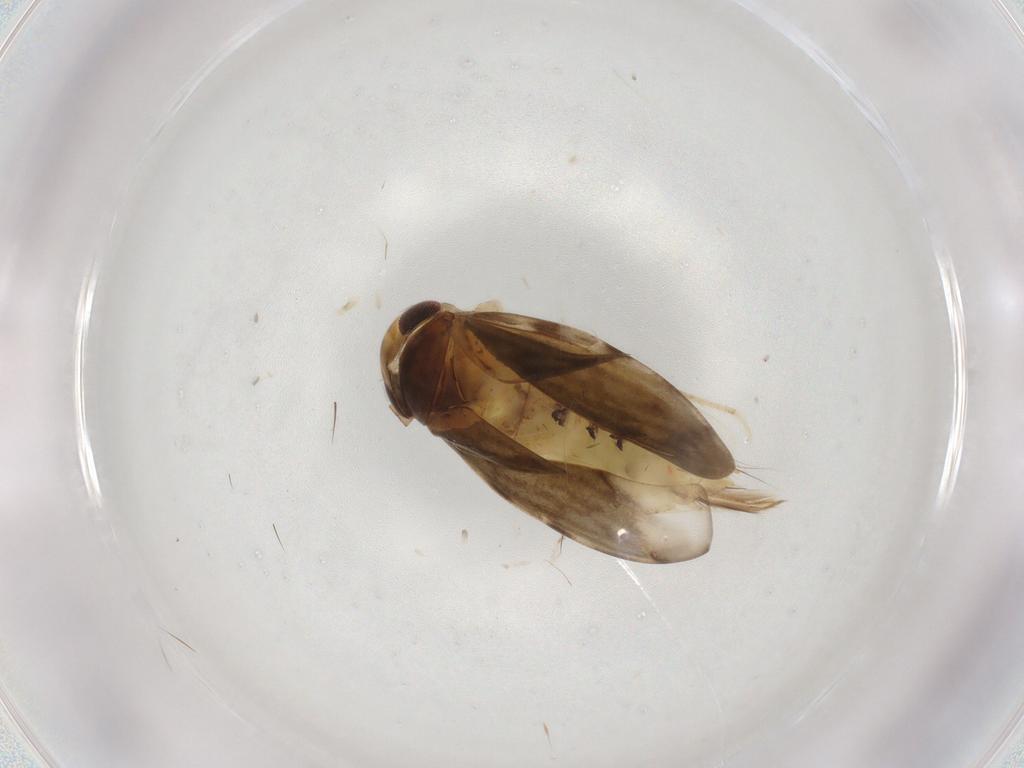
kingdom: Animalia
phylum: Arthropoda
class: Insecta
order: Hemiptera
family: Corixidae
